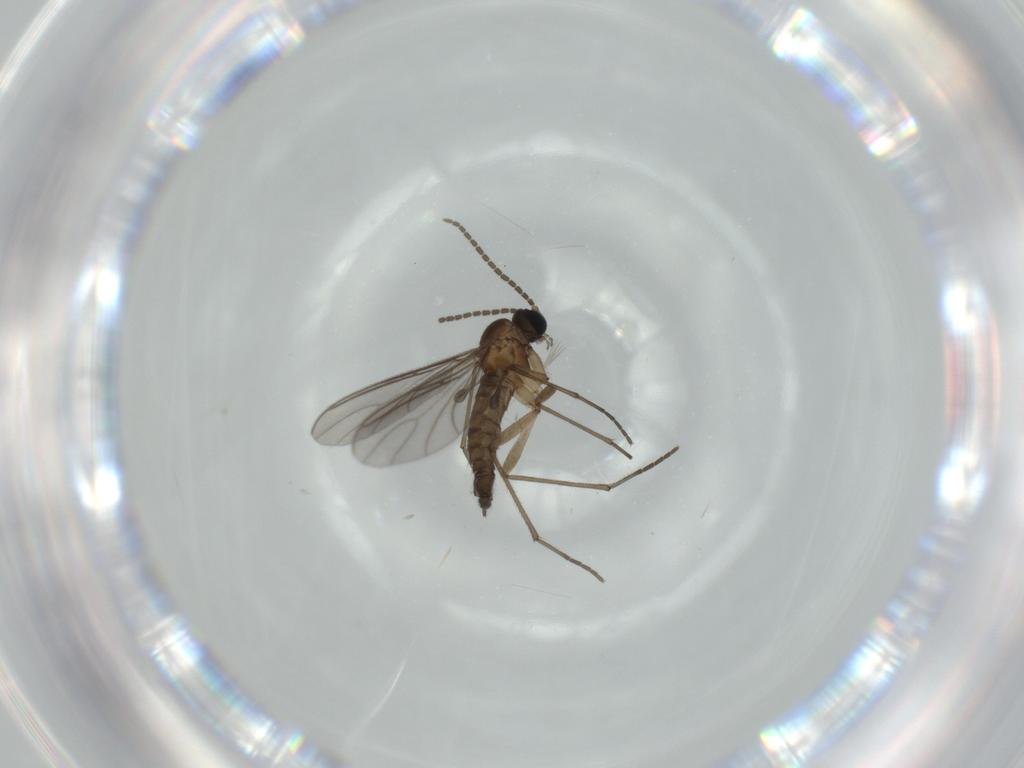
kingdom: Animalia
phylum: Arthropoda
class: Insecta
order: Diptera
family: Sciaridae
